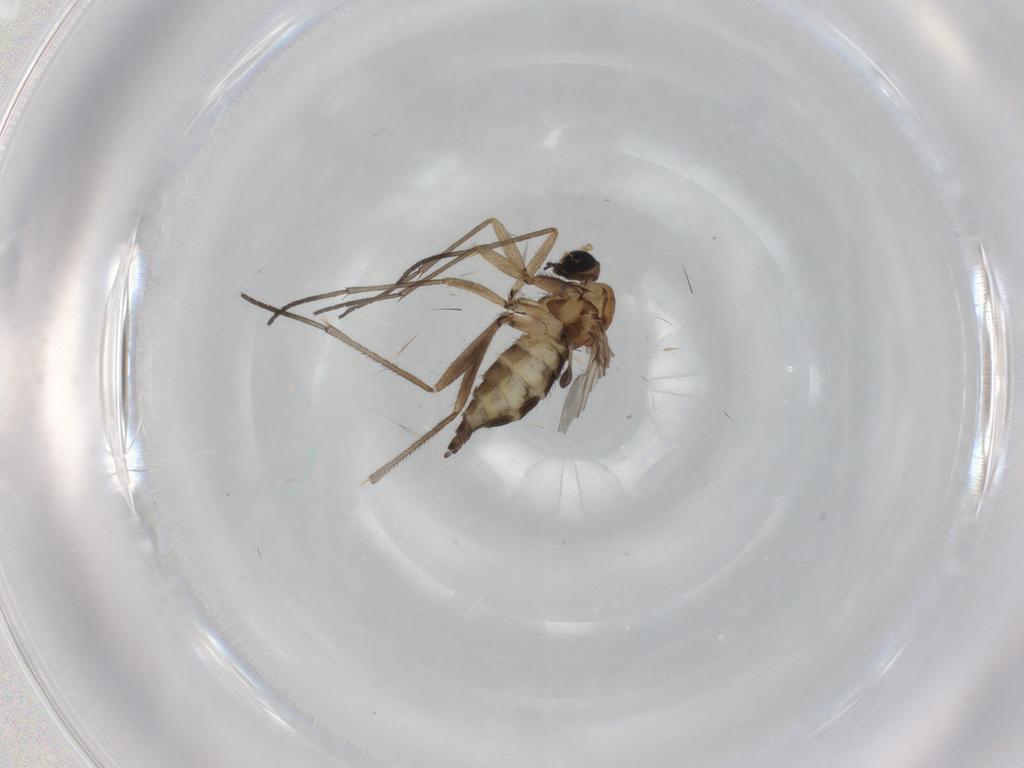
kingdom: Animalia
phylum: Arthropoda
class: Insecta
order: Diptera
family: Sciaridae
